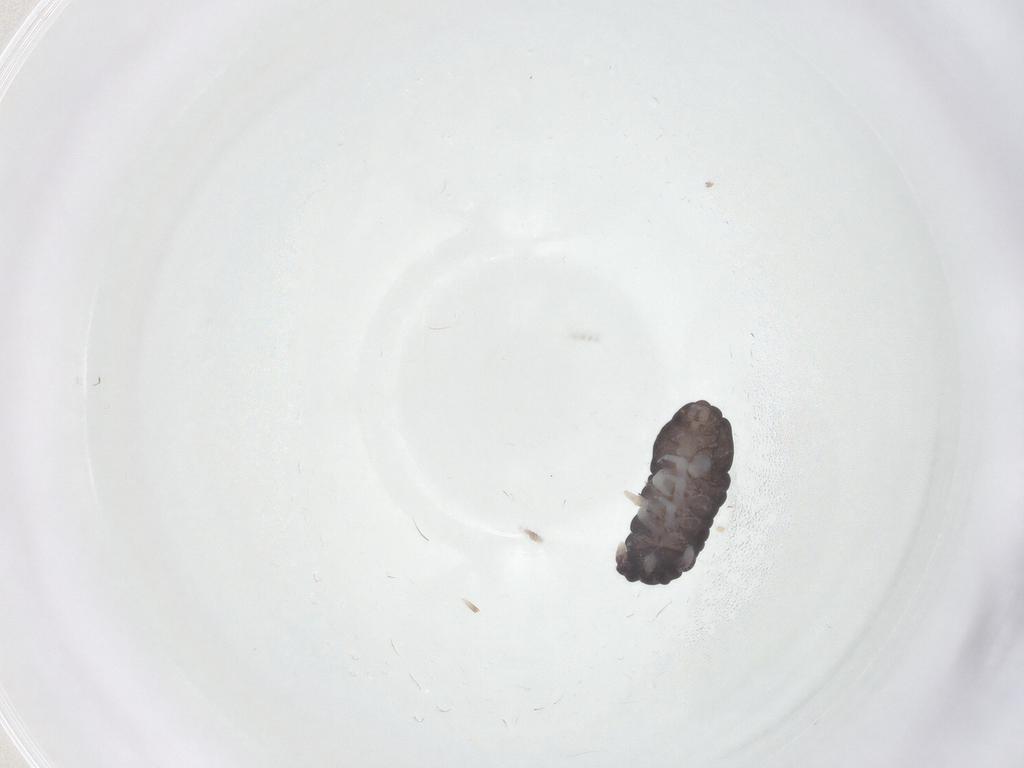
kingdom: Animalia
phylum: Arthropoda
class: Collembola
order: Poduromorpha
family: Neanuridae
